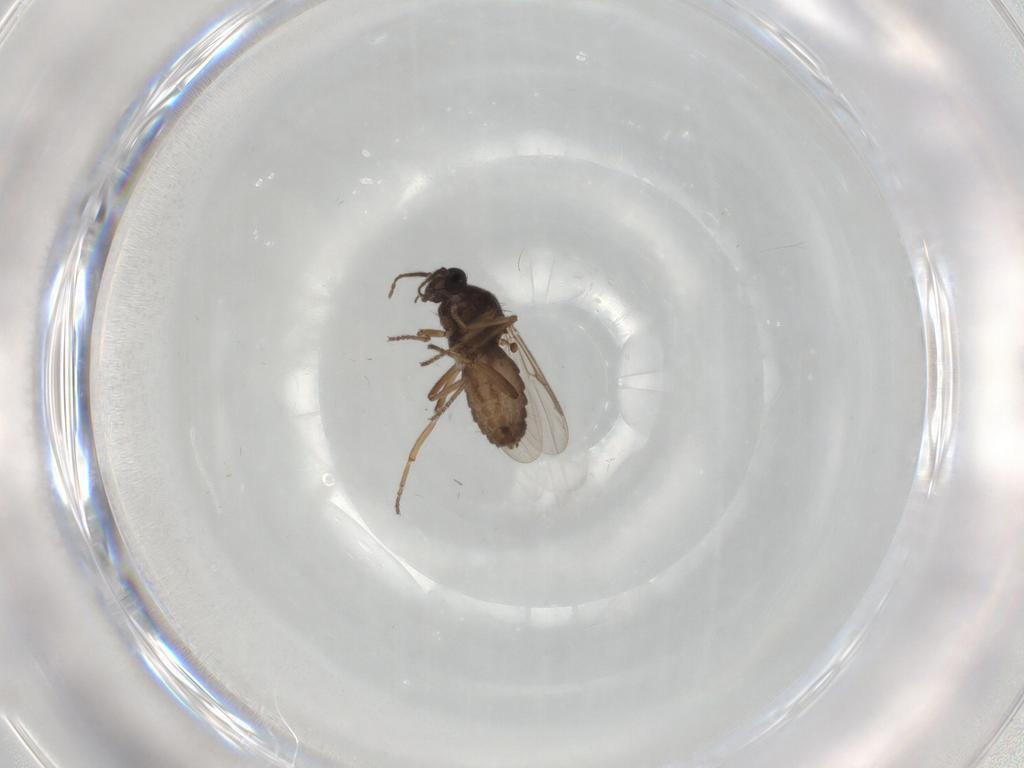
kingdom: Animalia
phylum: Arthropoda
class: Insecta
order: Diptera
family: Ceratopogonidae
